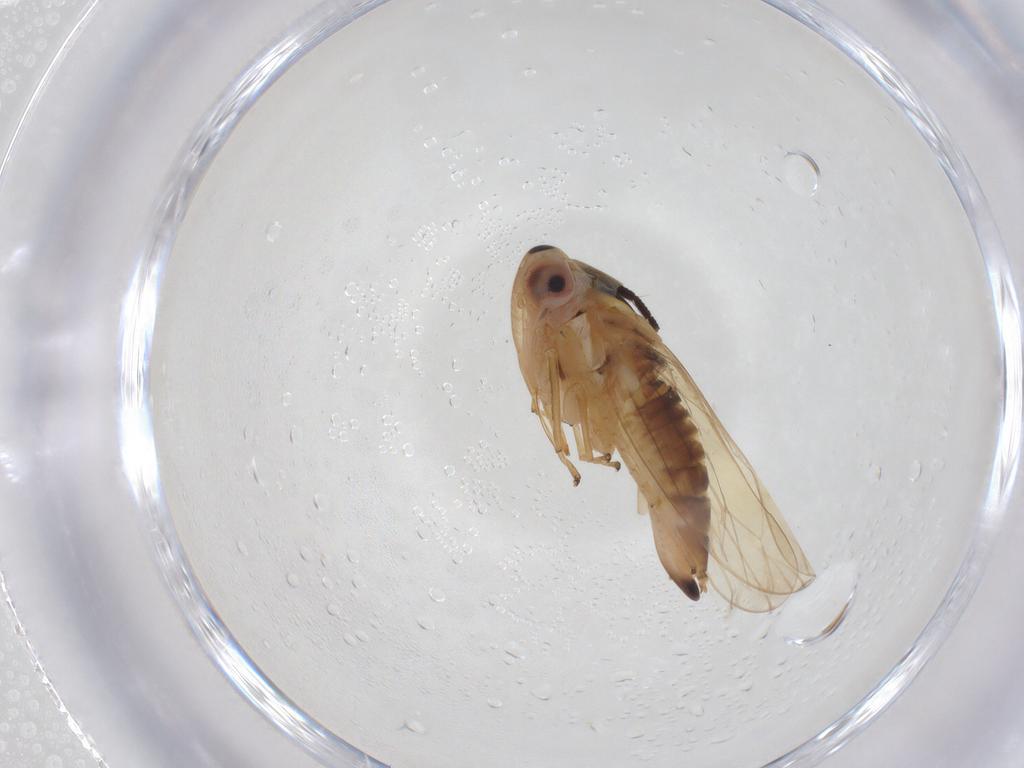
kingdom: Animalia
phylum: Arthropoda
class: Insecta
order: Hemiptera
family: Cicadellidae
